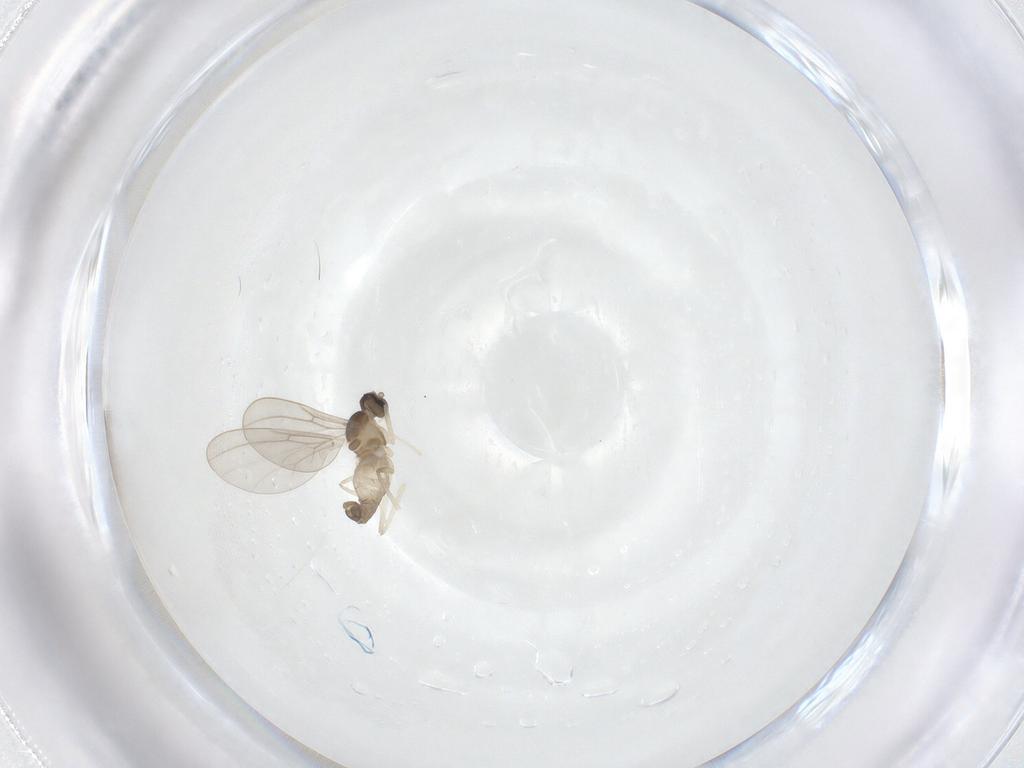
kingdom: Animalia
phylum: Arthropoda
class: Insecta
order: Diptera
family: Cecidomyiidae
